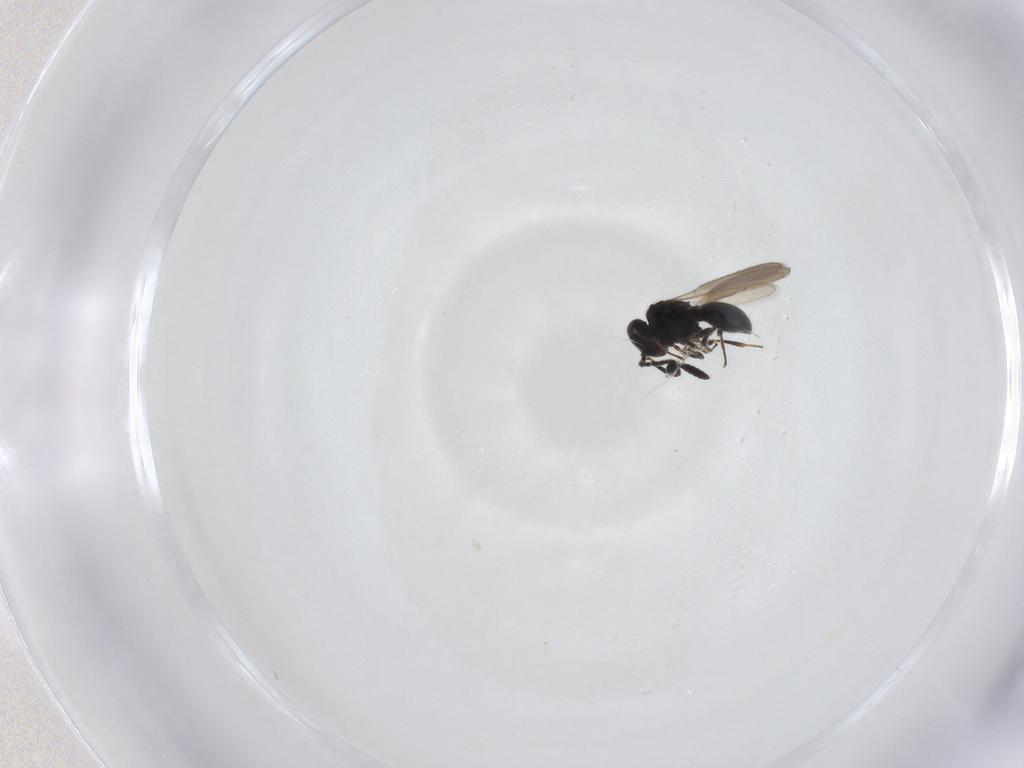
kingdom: Animalia
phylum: Arthropoda
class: Insecta
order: Hymenoptera
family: Scelionidae
